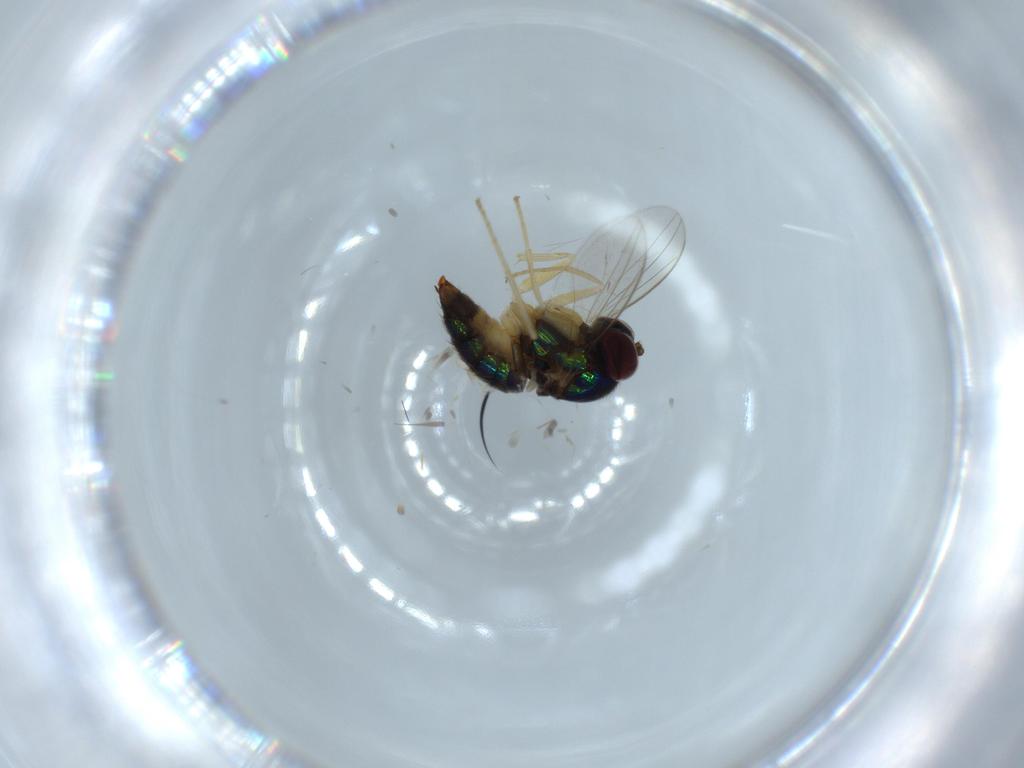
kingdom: Animalia
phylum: Arthropoda
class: Insecta
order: Diptera
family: Dolichopodidae
